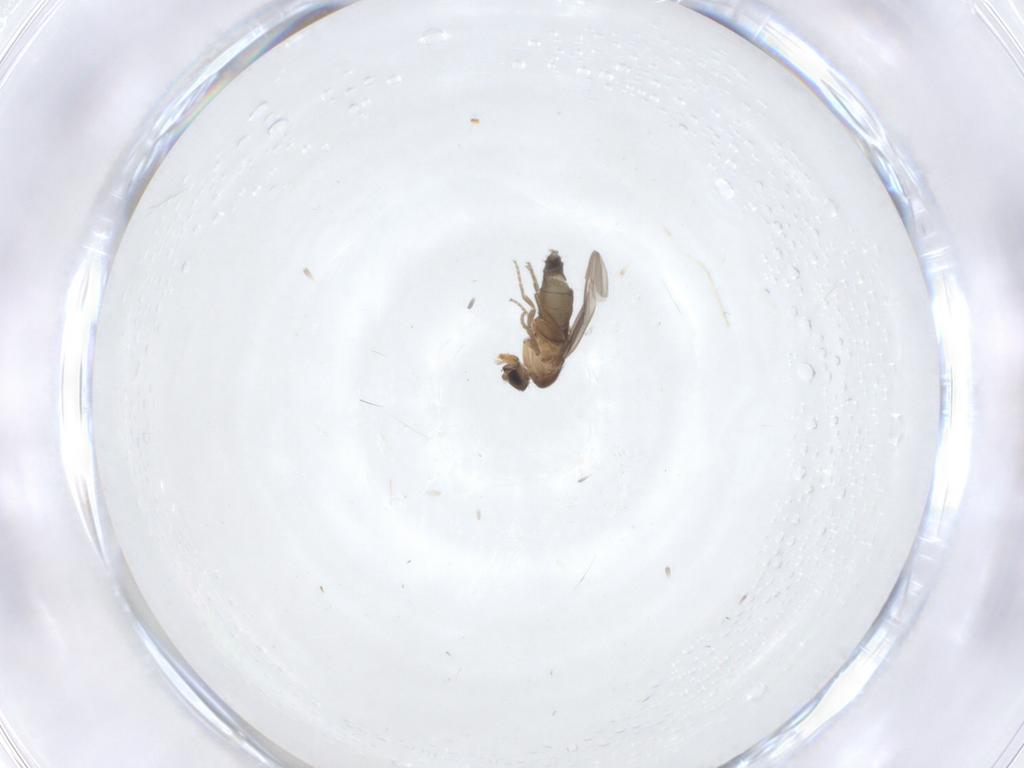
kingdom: Animalia
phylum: Arthropoda
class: Insecta
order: Diptera
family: Phoridae
